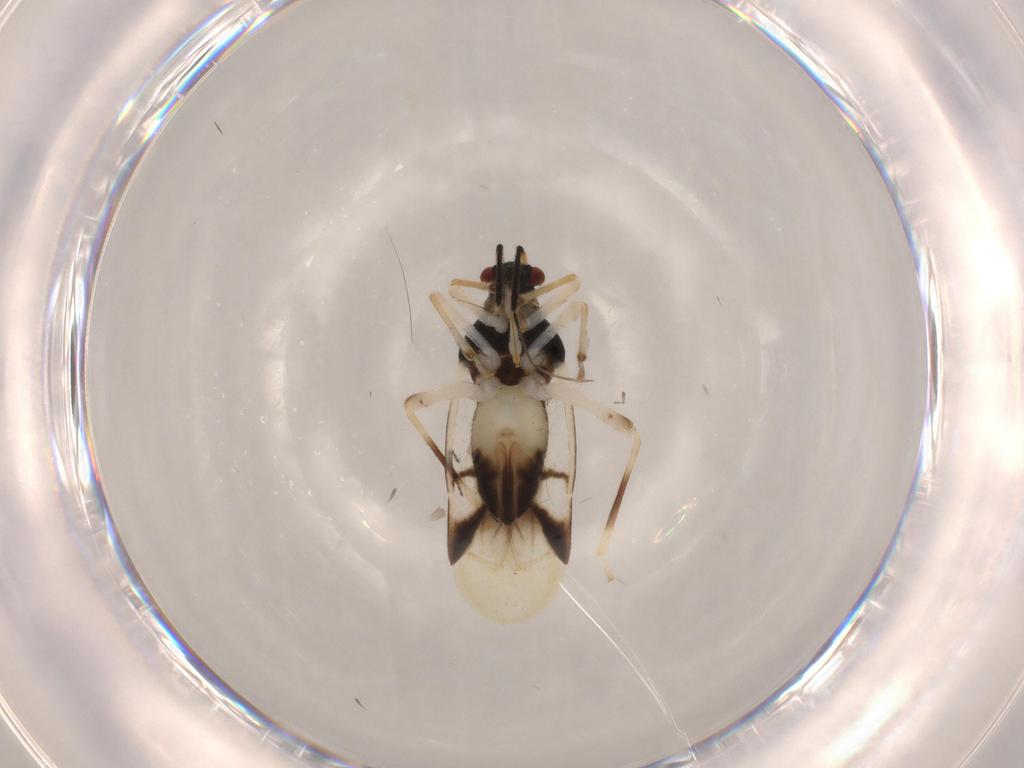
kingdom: Animalia
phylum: Arthropoda
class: Insecta
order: Hemiptera
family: Miridae
